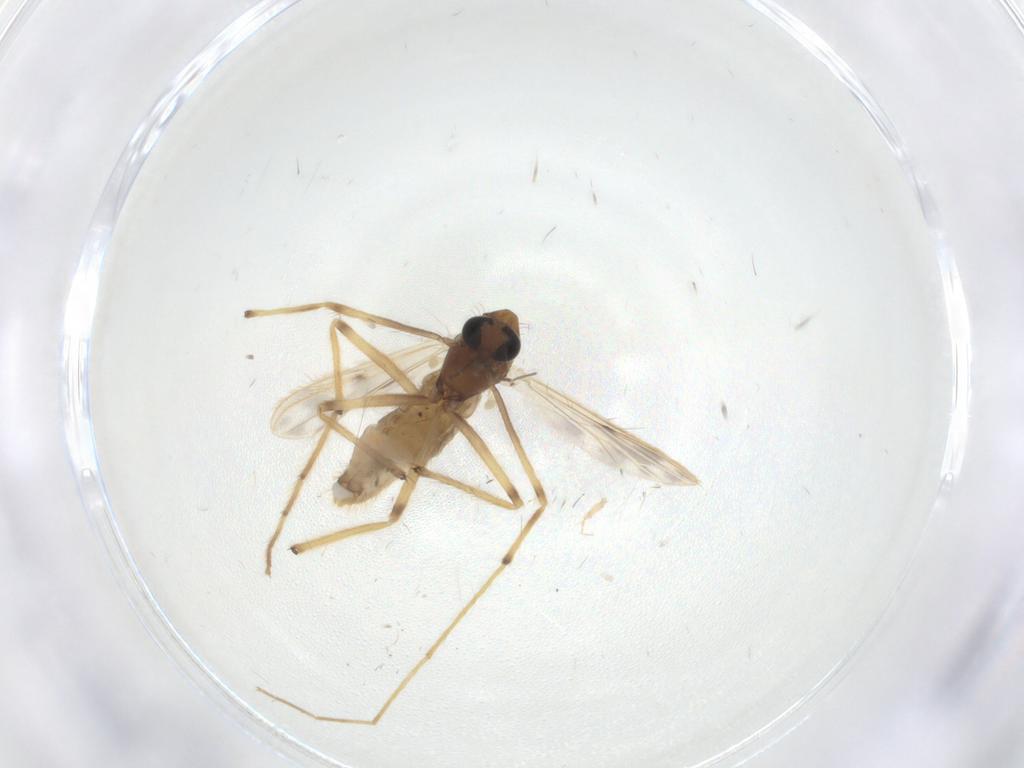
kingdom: Animalia
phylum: Arthropoda
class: Insecta
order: Diptera
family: Chironomidae
